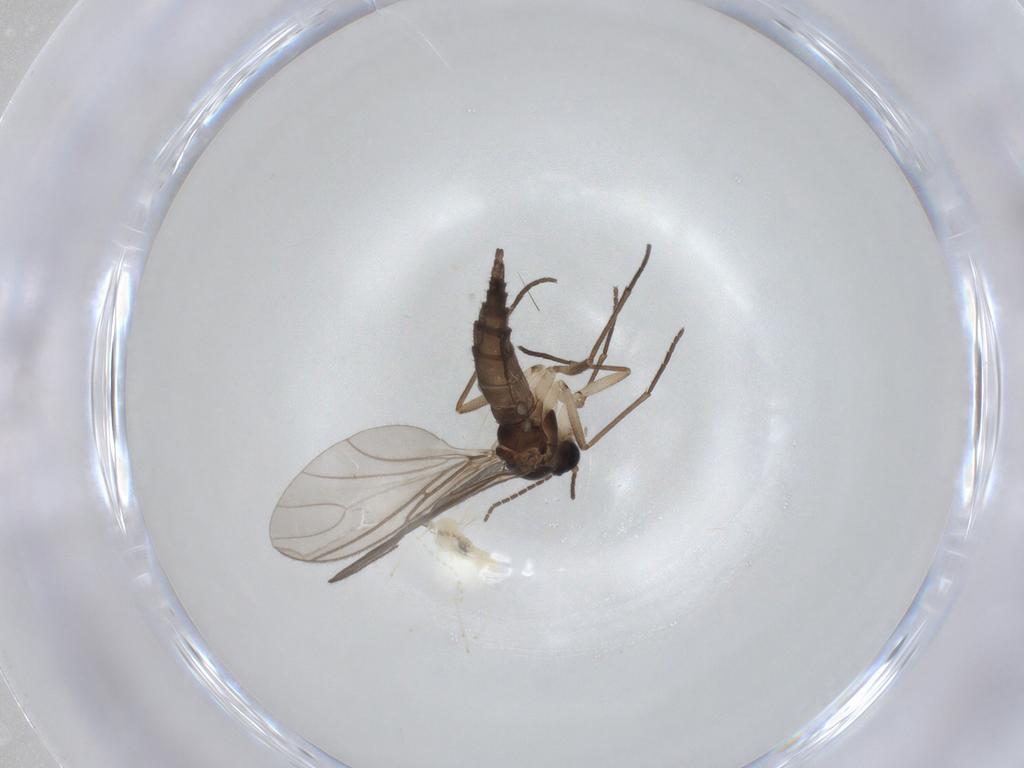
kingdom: Animalia
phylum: Arthropoda
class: Insecta
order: Diptera
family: Sciaridae
